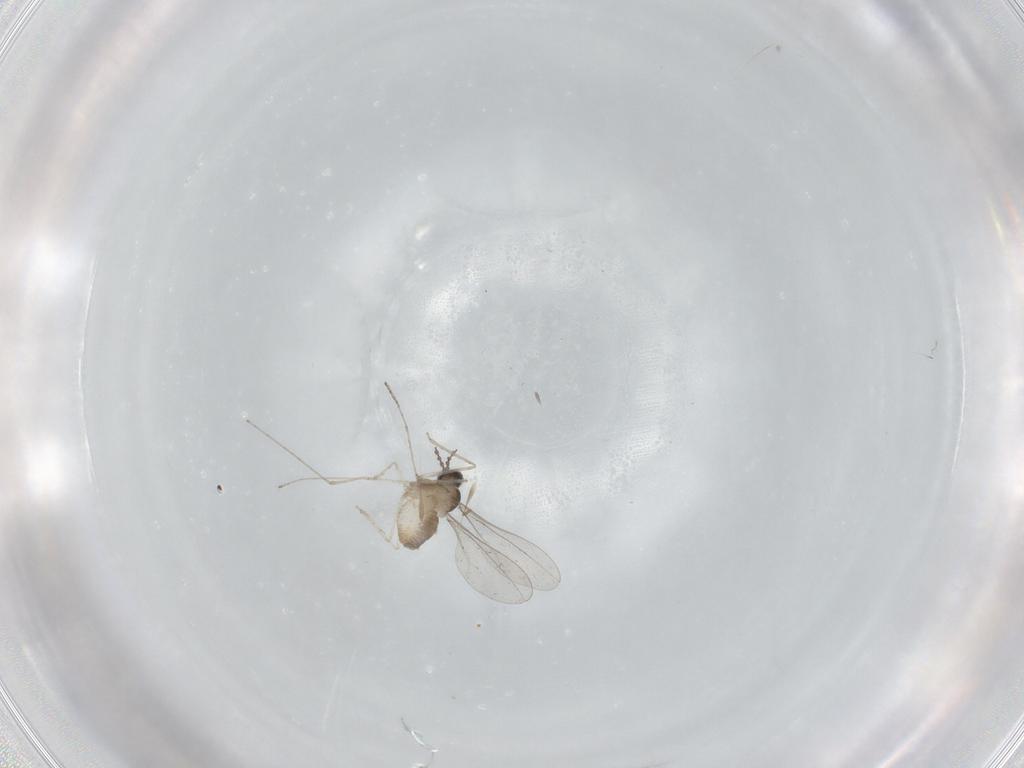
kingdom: Animalia
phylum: Arthropoda
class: Insecta
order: Diptera
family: Cecidomyiidae
